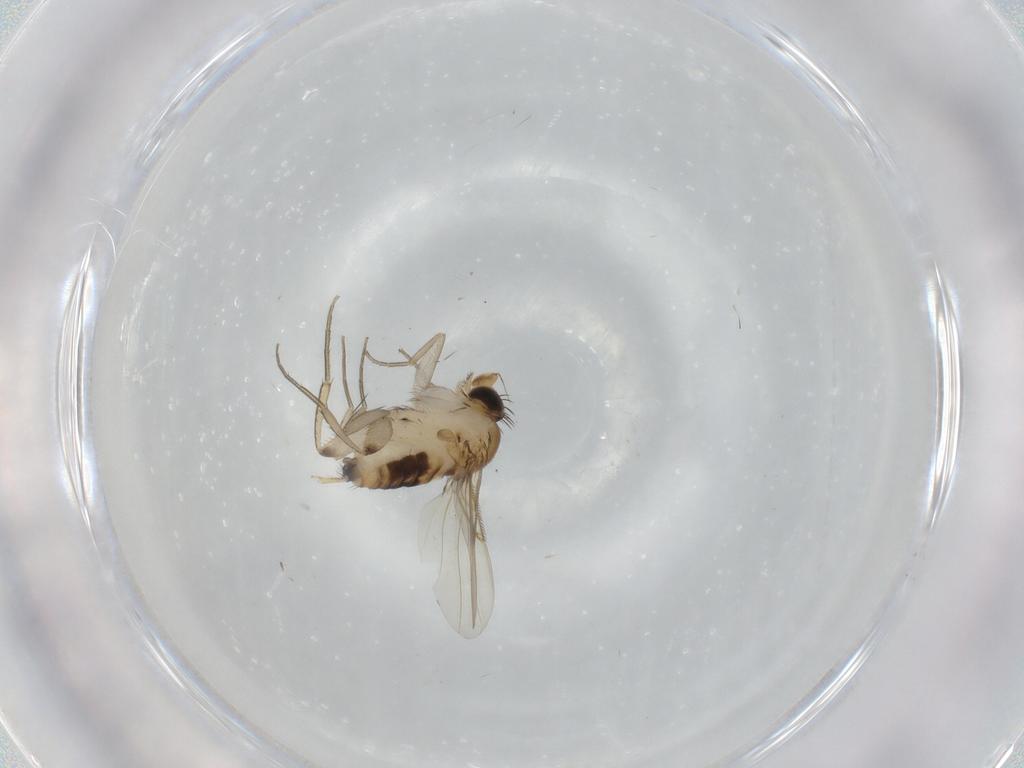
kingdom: Animalia
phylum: Arthropoda
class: Insecta
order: Diptera
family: Phoridae
